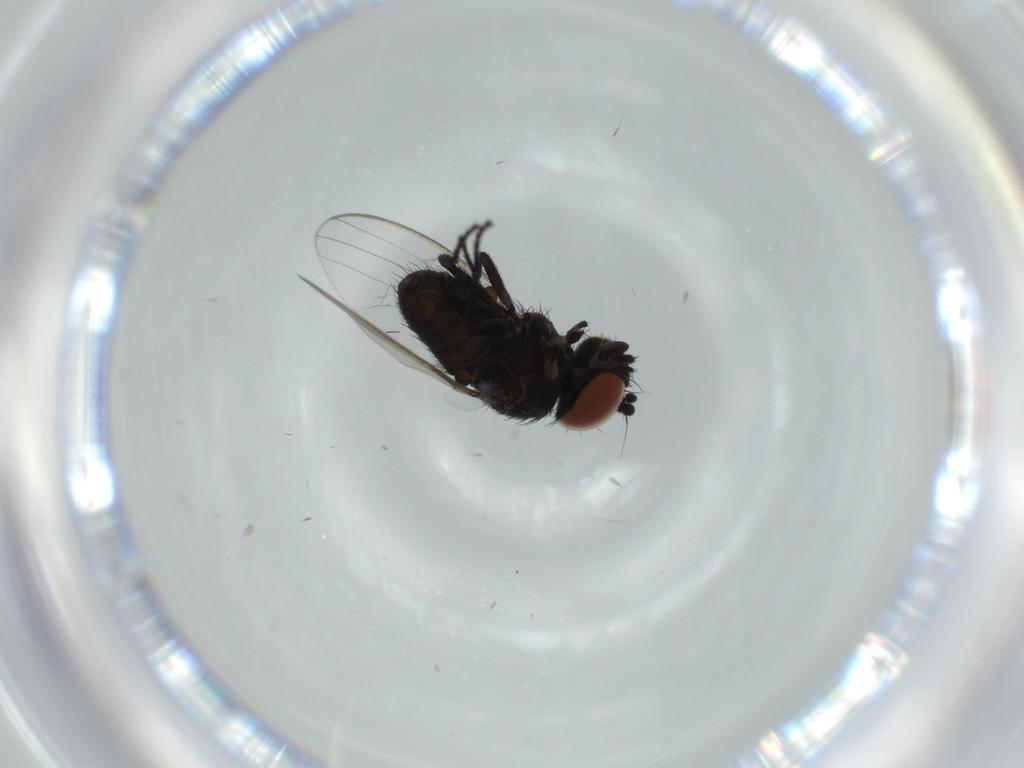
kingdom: Animalia
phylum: Arthropoda
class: Insecta
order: Diptera
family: Milichiidae
